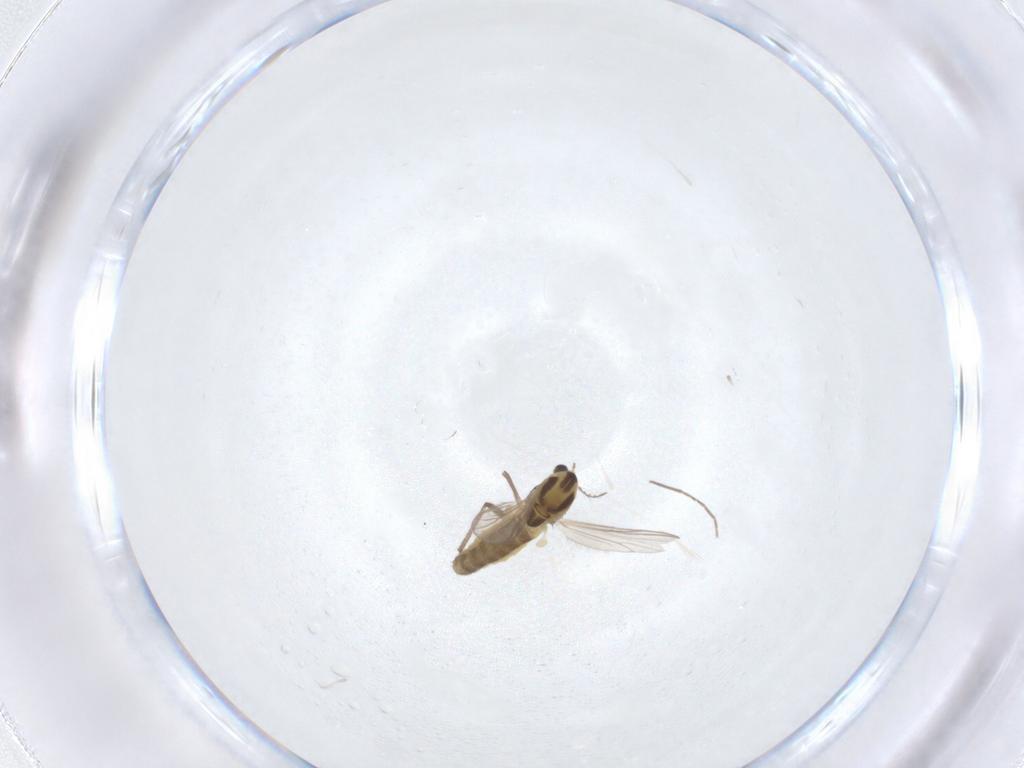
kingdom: Animalia
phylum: Arthropoda
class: Insecta
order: Diptera
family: Chironomidae
